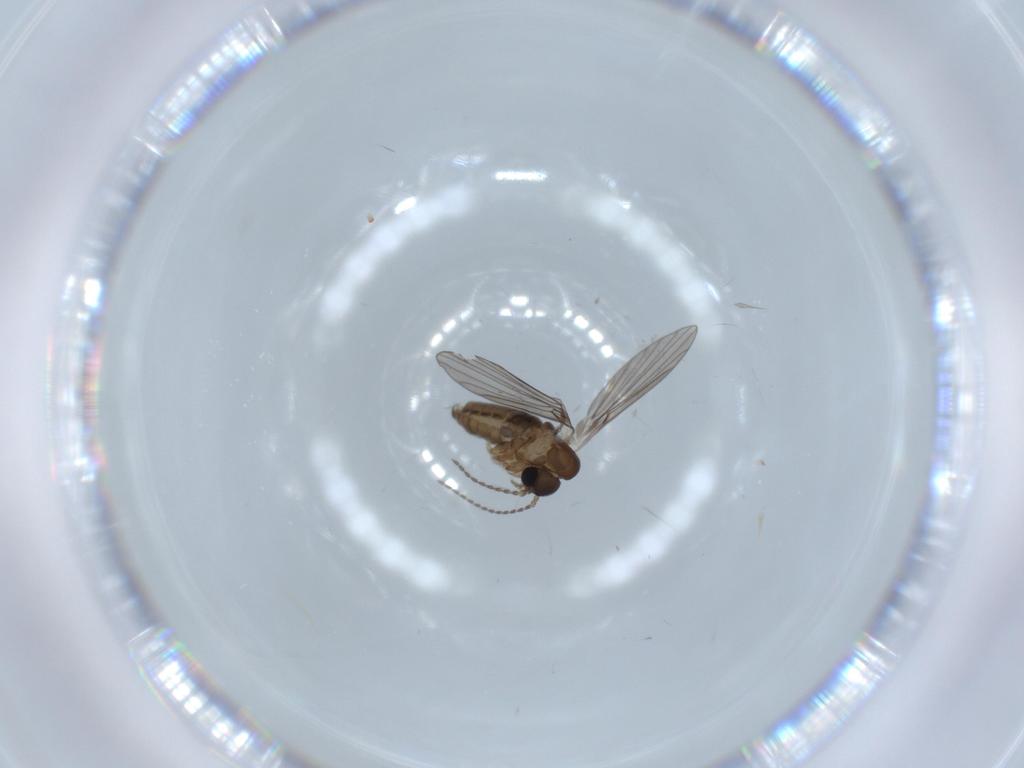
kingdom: Animalia
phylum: Arthropoda
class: Insecta
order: Diptera
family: Psychodidae
